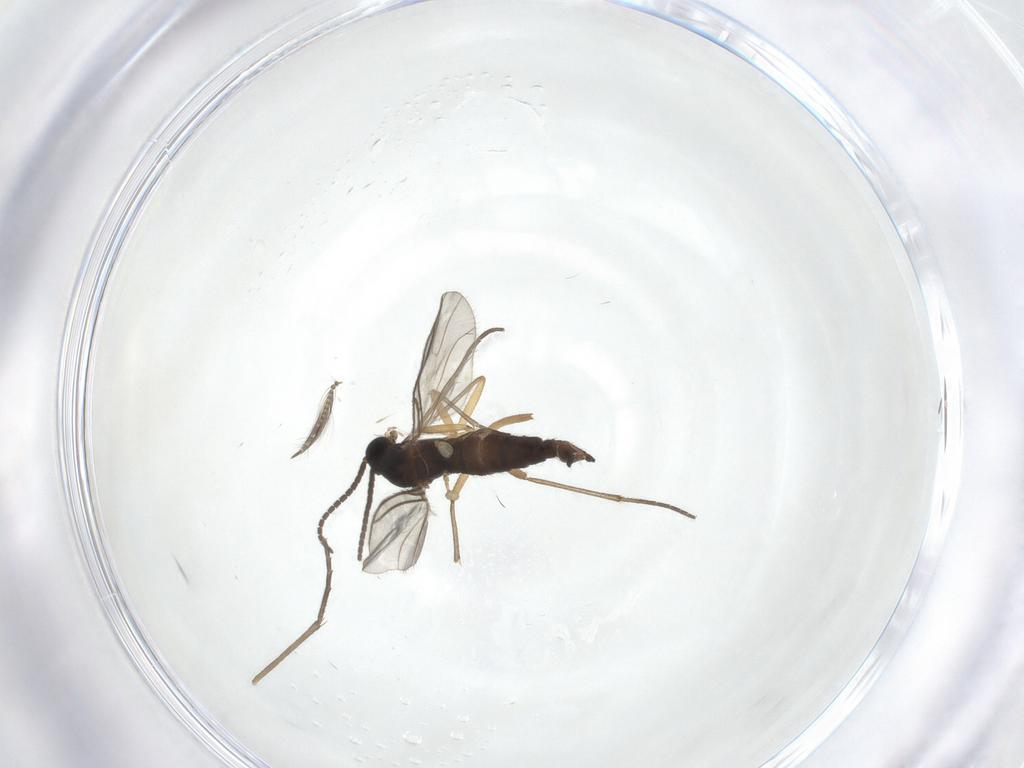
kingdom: Animalia
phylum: Arthropoda
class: Insecta
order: Diptera
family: Sciaridae
